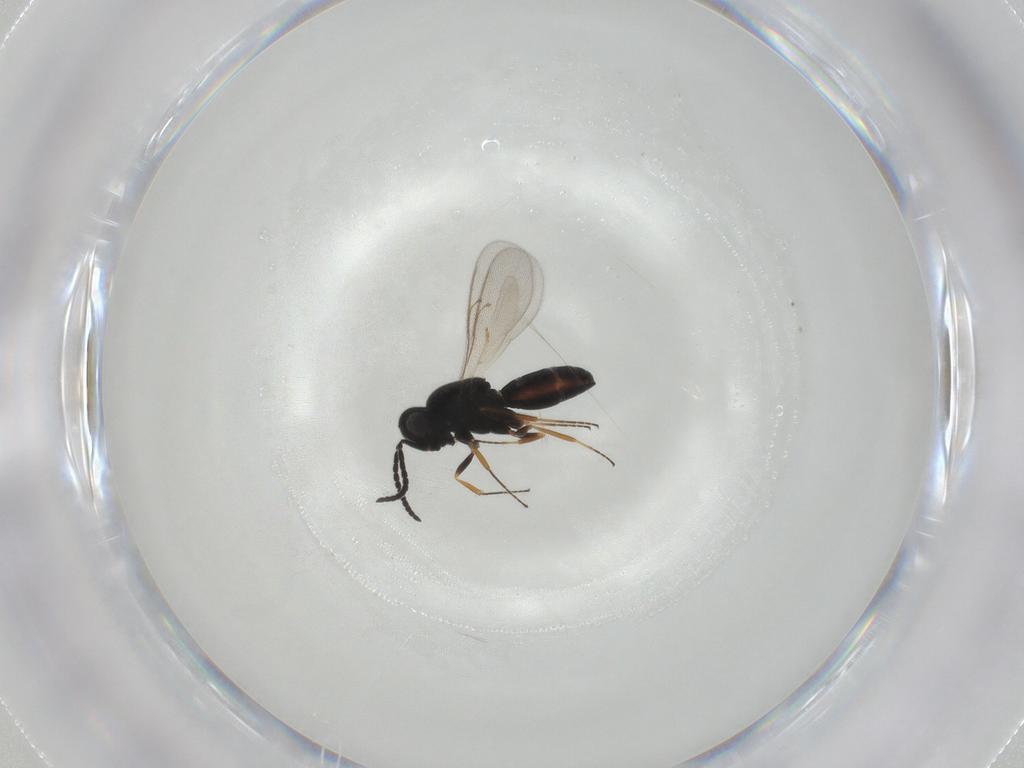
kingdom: Animalia
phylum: Arthropoda
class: Insecta
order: Hymenoptera
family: Scelionidae
